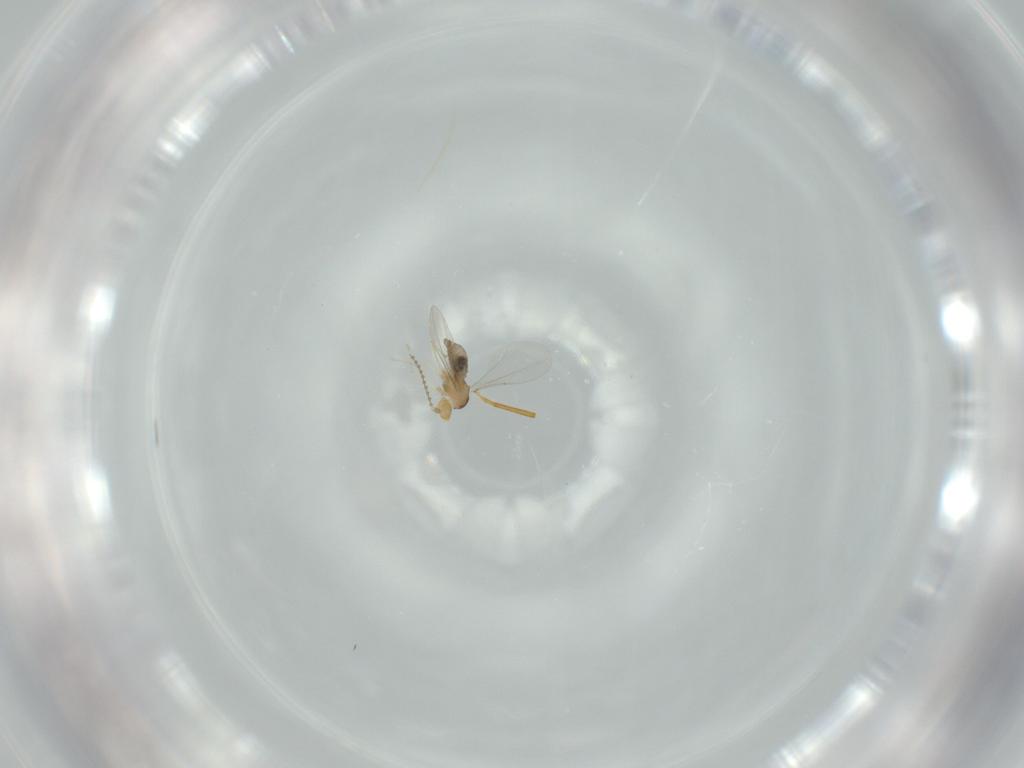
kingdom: Animalia
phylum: Arthropoda
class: Insecta
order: Diptera
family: Cecidomyiidae
